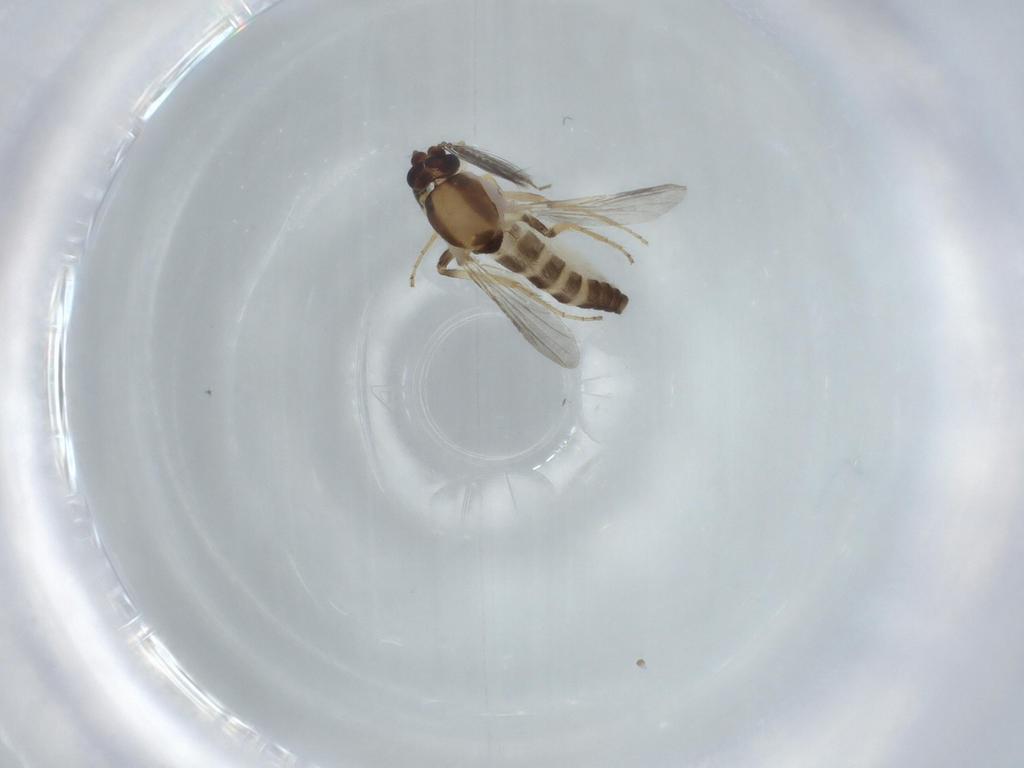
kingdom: Animalia
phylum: Arthropoda
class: Insecta
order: Diptera
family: Ceratopogonidae
